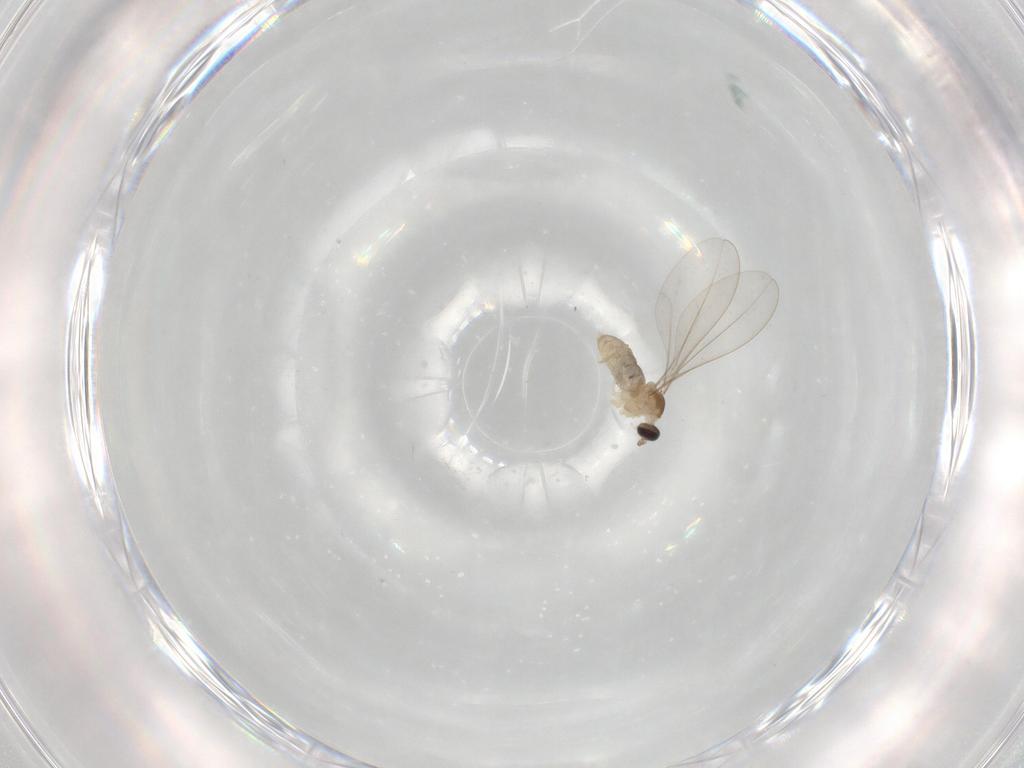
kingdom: Animalia
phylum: Arthropoda
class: Insecta
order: Diptera
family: Cecidomyiidae
